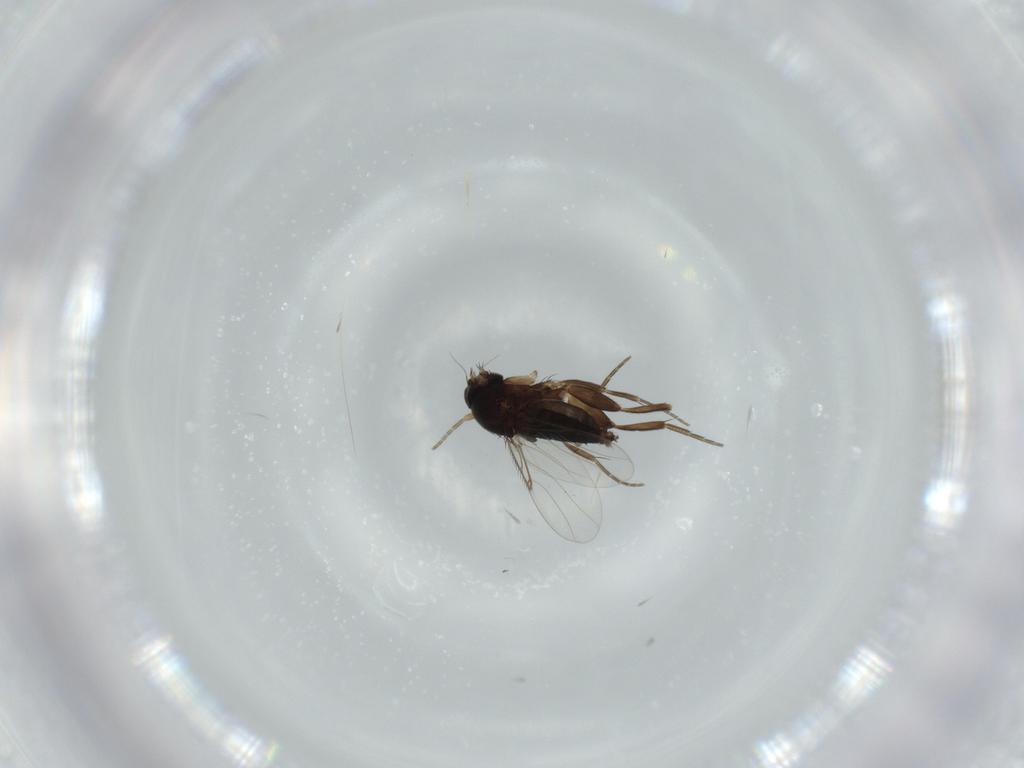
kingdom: Animalia
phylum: Arthropoda
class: Insecta
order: Diptera
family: Phoridae
